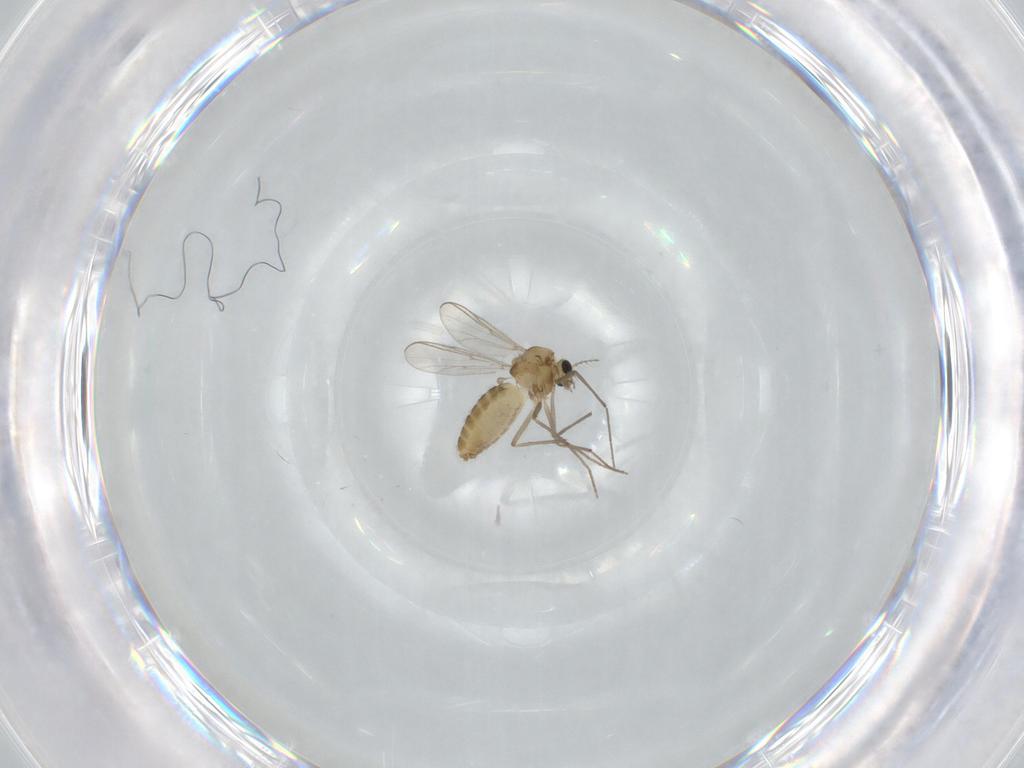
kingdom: Animalia
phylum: Arthropoda
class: Insecta
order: Diptera
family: Chironomidae
